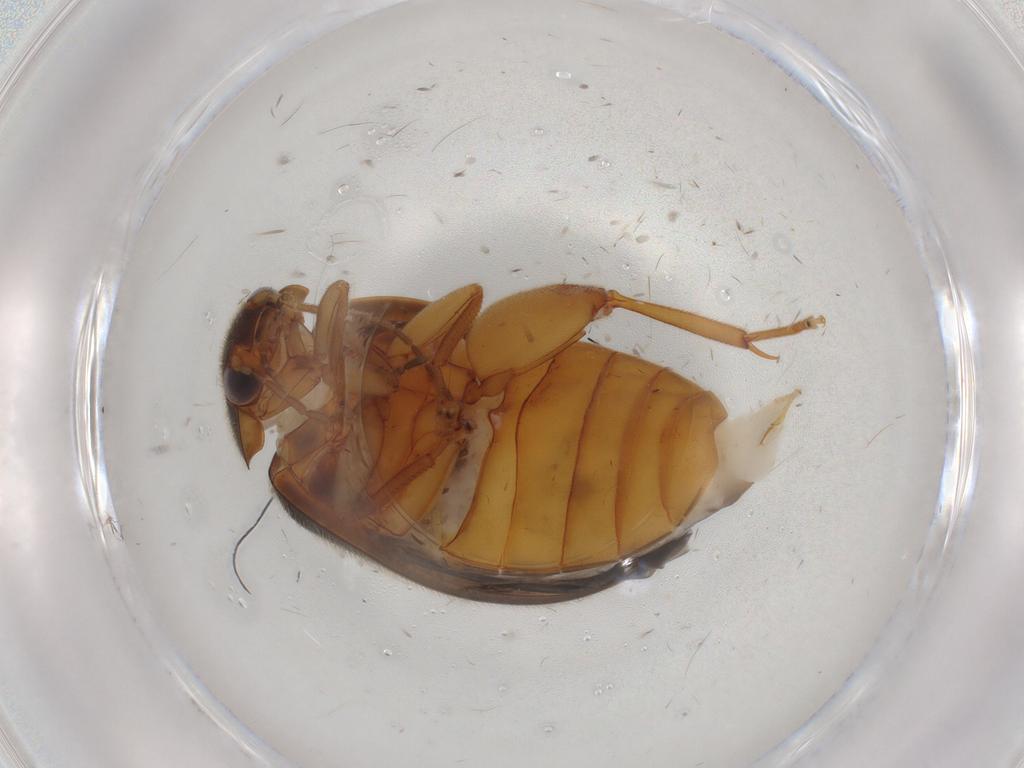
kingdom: Animalia
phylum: Arthropoda
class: Insecta
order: Coleoptera
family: Scirtidae
